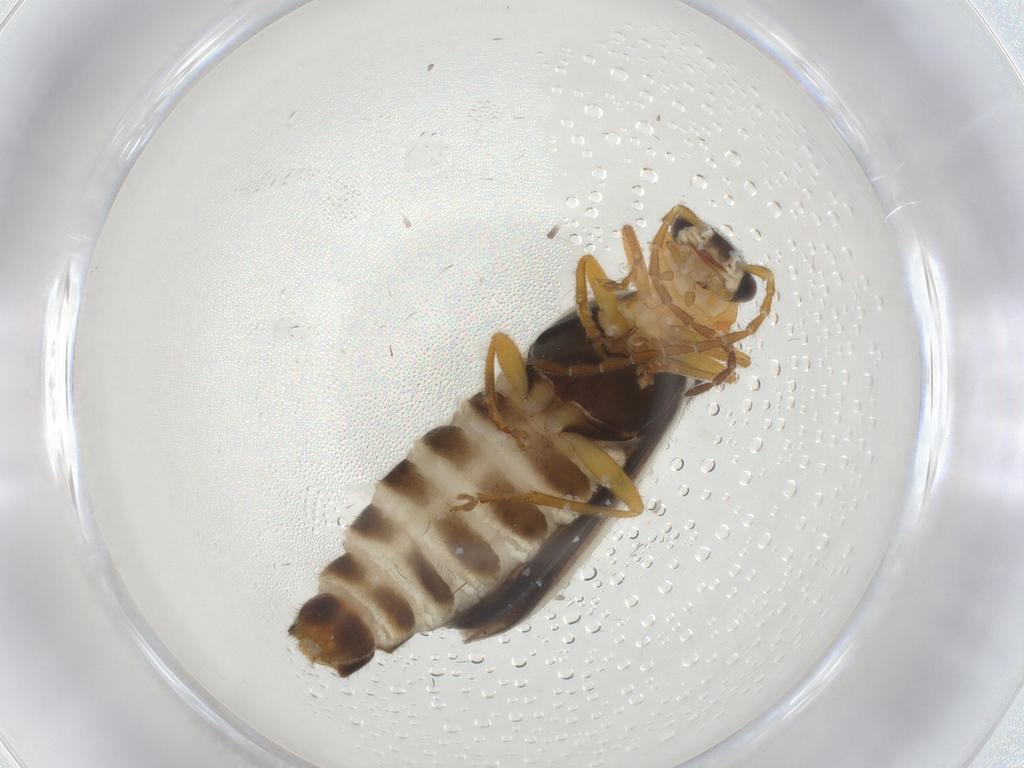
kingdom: Animalia
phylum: Arthropoda
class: Insecta
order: Coleoptera
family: Cantharidae
